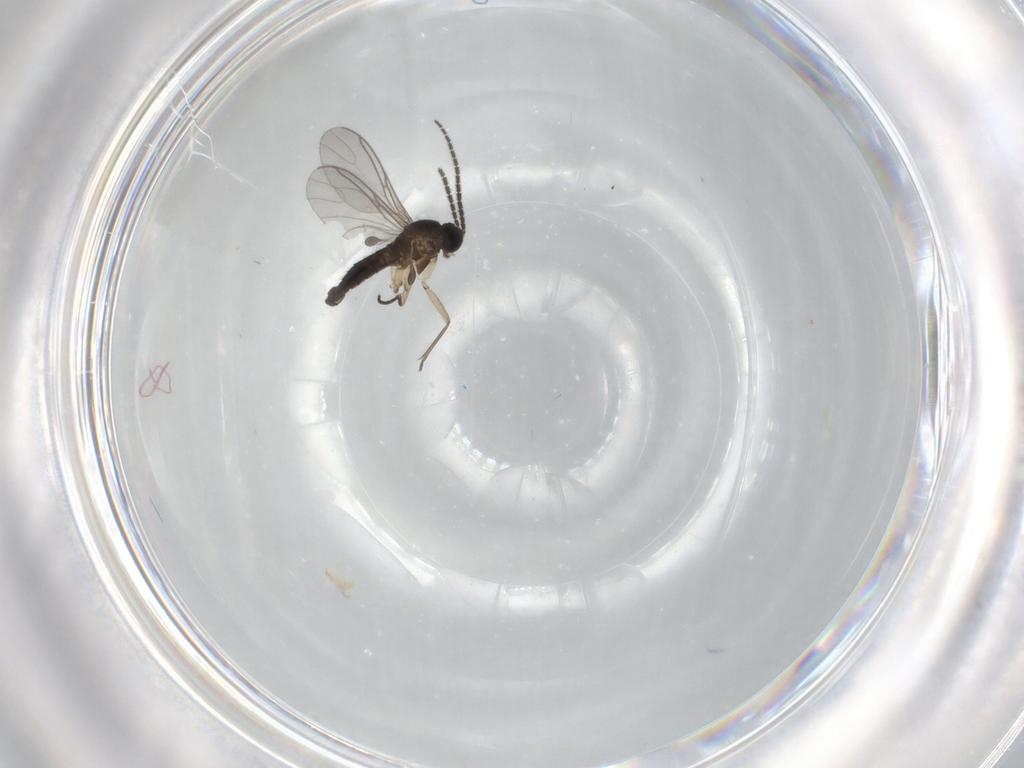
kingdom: Animalia
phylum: Arthropoda
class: Insecta
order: Diptera
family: Sciaridae
